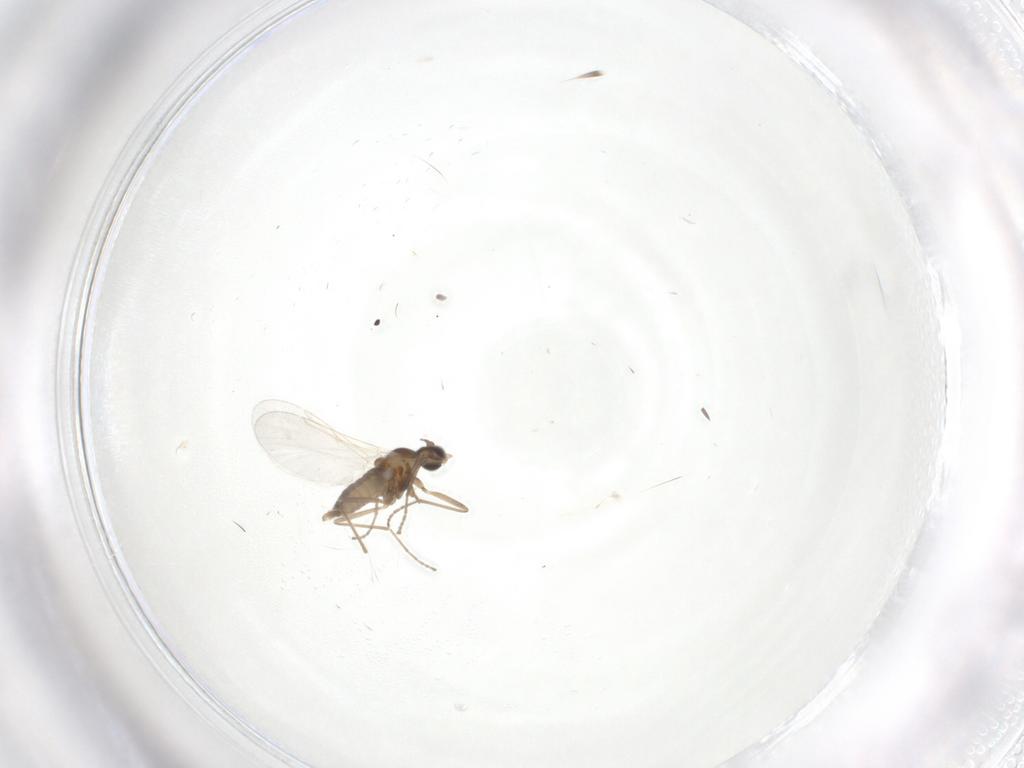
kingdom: Animalia
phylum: Arthropoda
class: Insecta
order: Diptera
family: Cecidomyiidae
